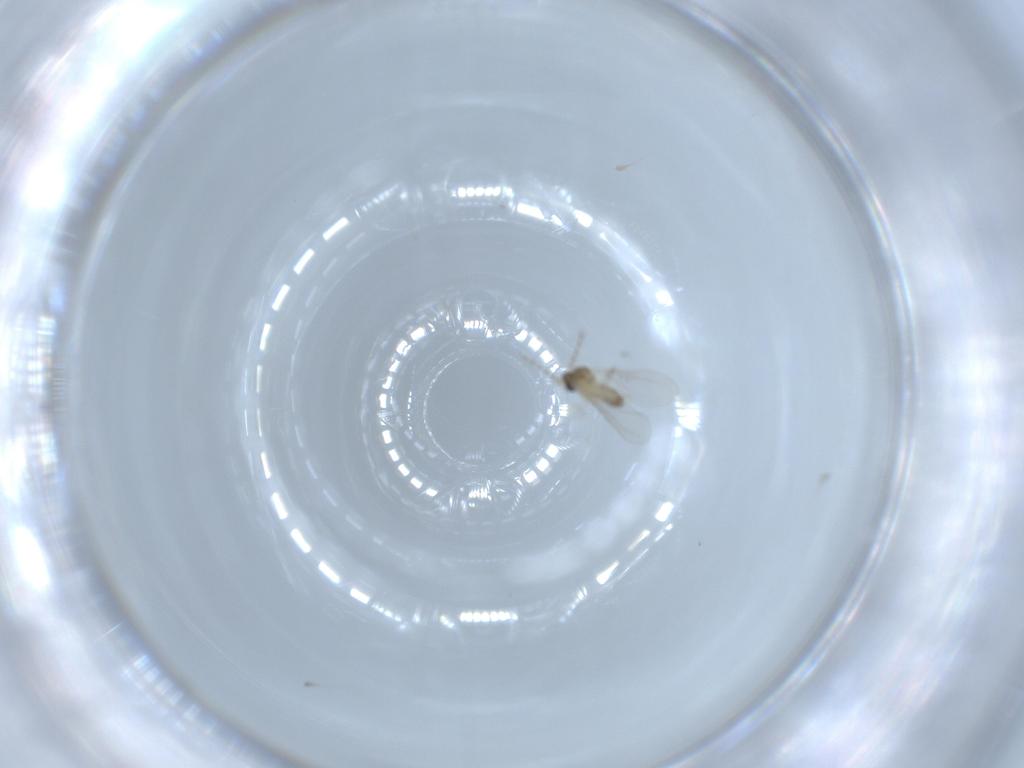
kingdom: Animalia
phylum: Arthropoda
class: Insecta
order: Diptera
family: Cecidomyiidae
